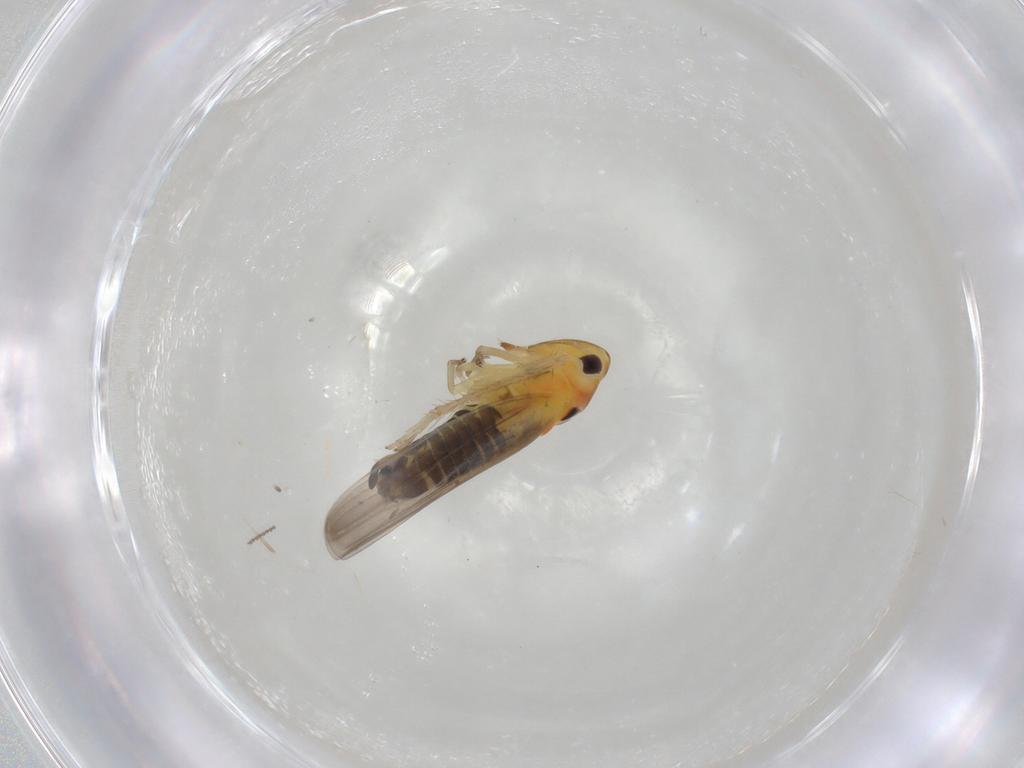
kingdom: Animalia
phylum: Arthropoda
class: Insecta
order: Hemiptera
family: Cicadellidae
